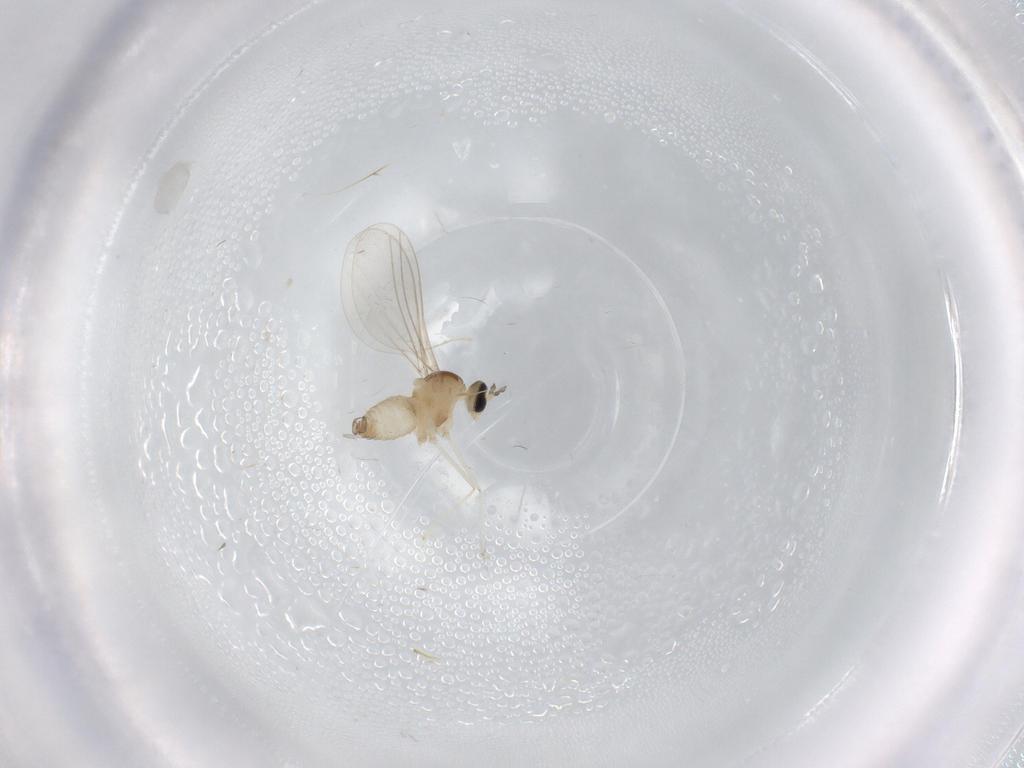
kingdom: Animalia
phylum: Arthropoda
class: Insecta
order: Diptera
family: Cecidomyiidae
